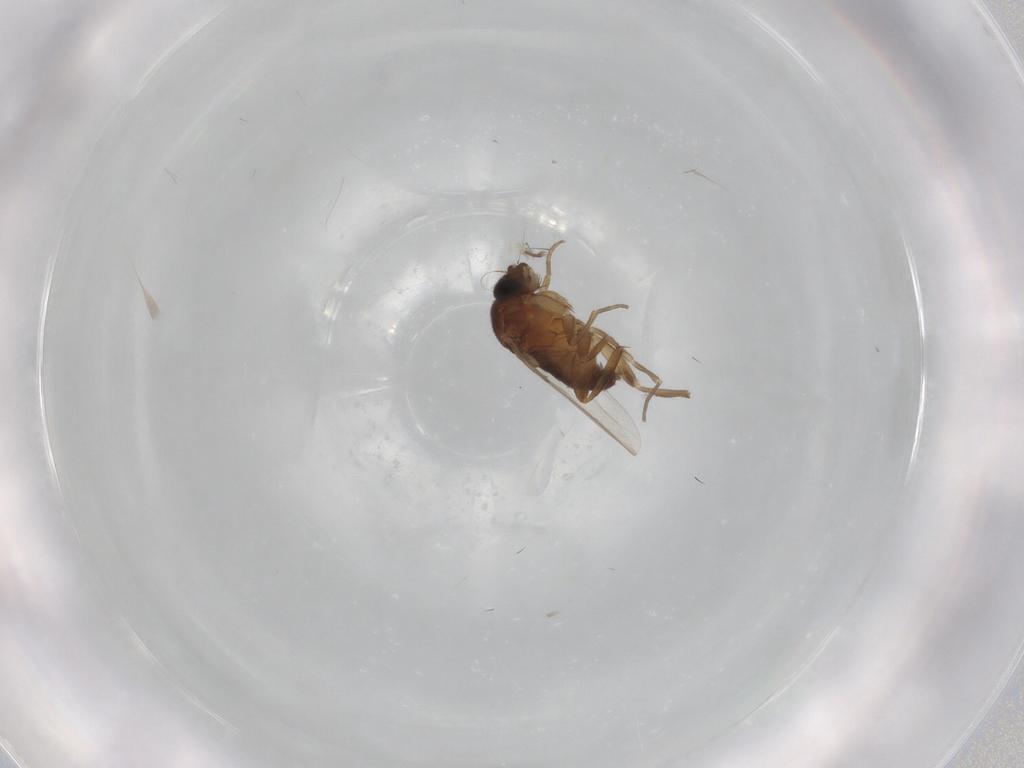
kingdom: Animalia
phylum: Arthropoda
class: Insecta
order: Diptera
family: Phoridae
